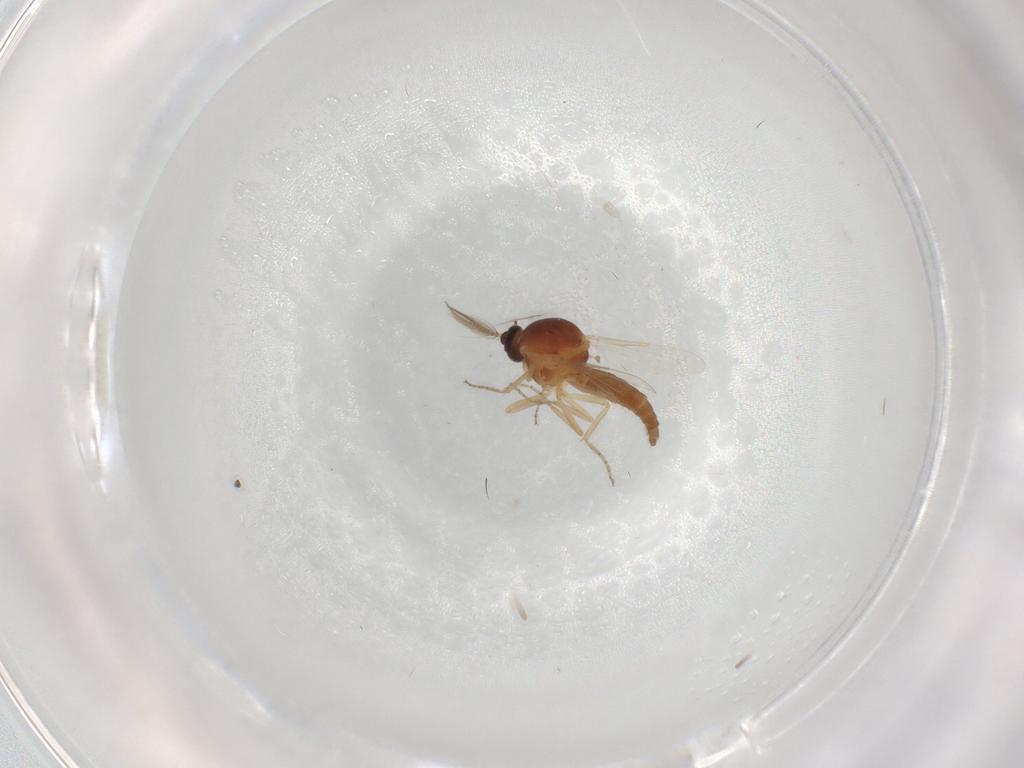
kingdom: Animalia
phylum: Arthropoda
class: Insecta
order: Diptera
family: Ceratopogonidae
